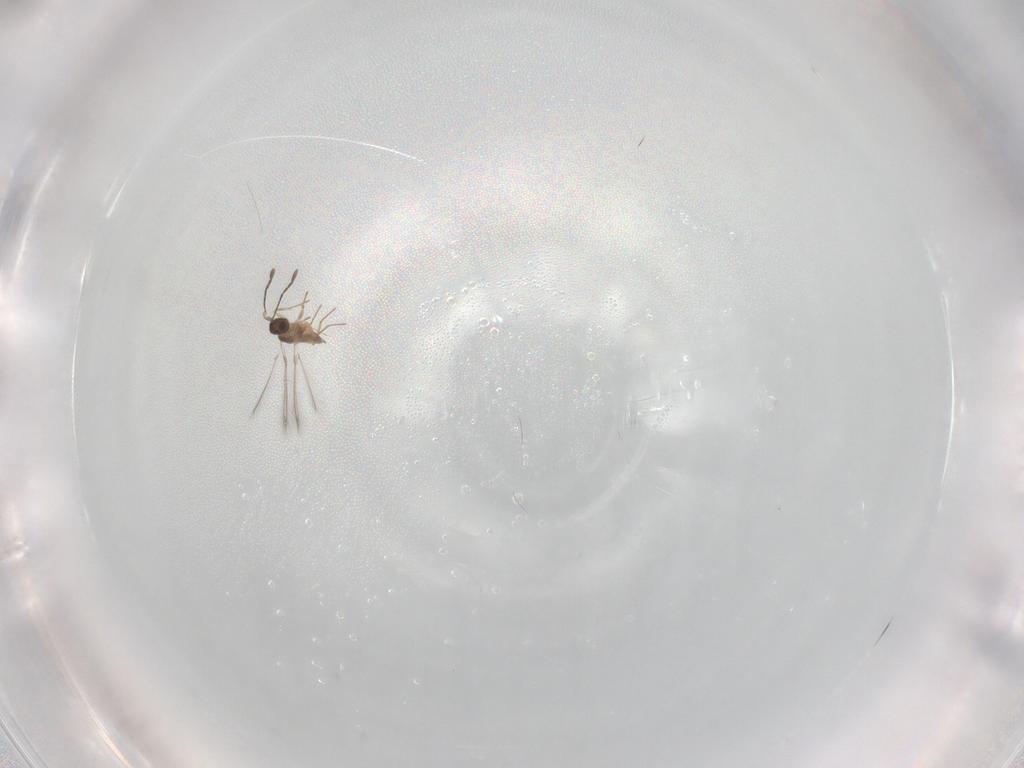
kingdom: Animalia
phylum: Arthropoda
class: Insecta
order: Hymenoptera
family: Mymaridae
